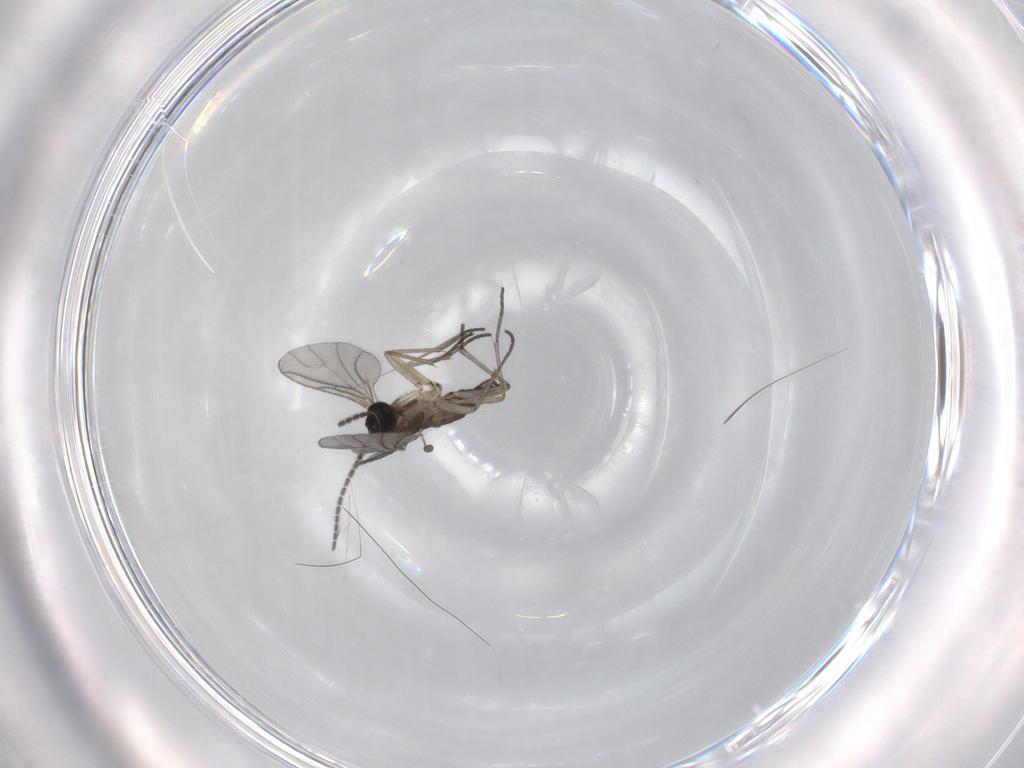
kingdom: Animalia
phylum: Arthropoda
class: Insecta
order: Diptera
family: Sciaridae
